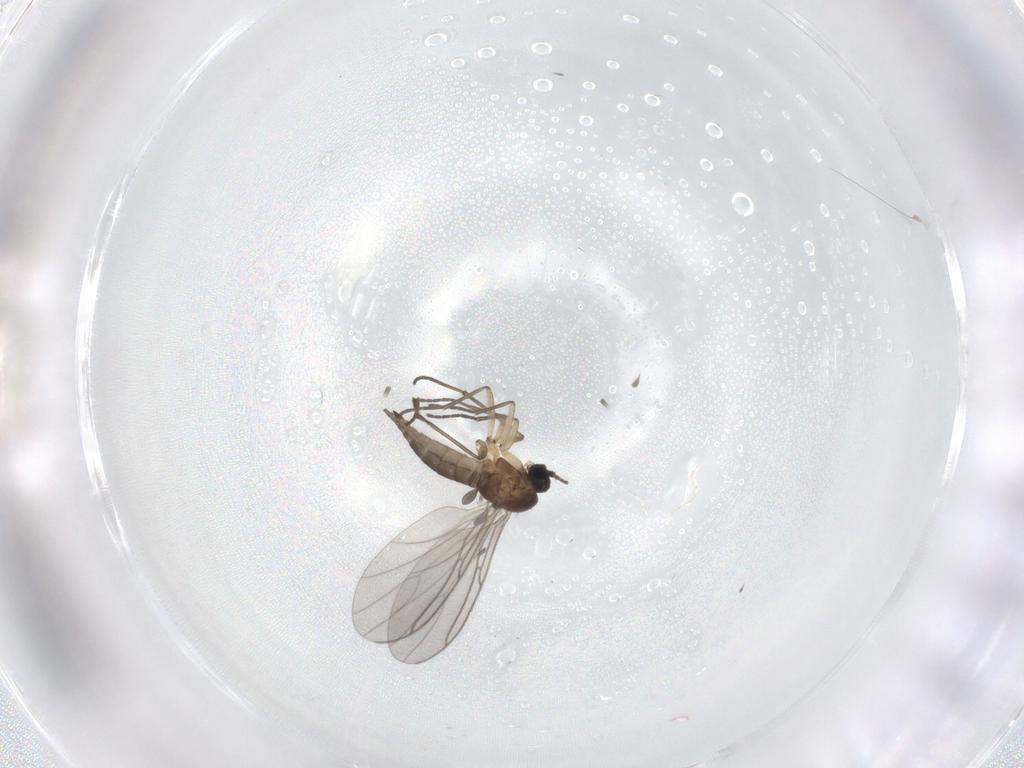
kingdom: Animalia
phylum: Arthropoda
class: Insecta
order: Diptera
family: Sciaridae
